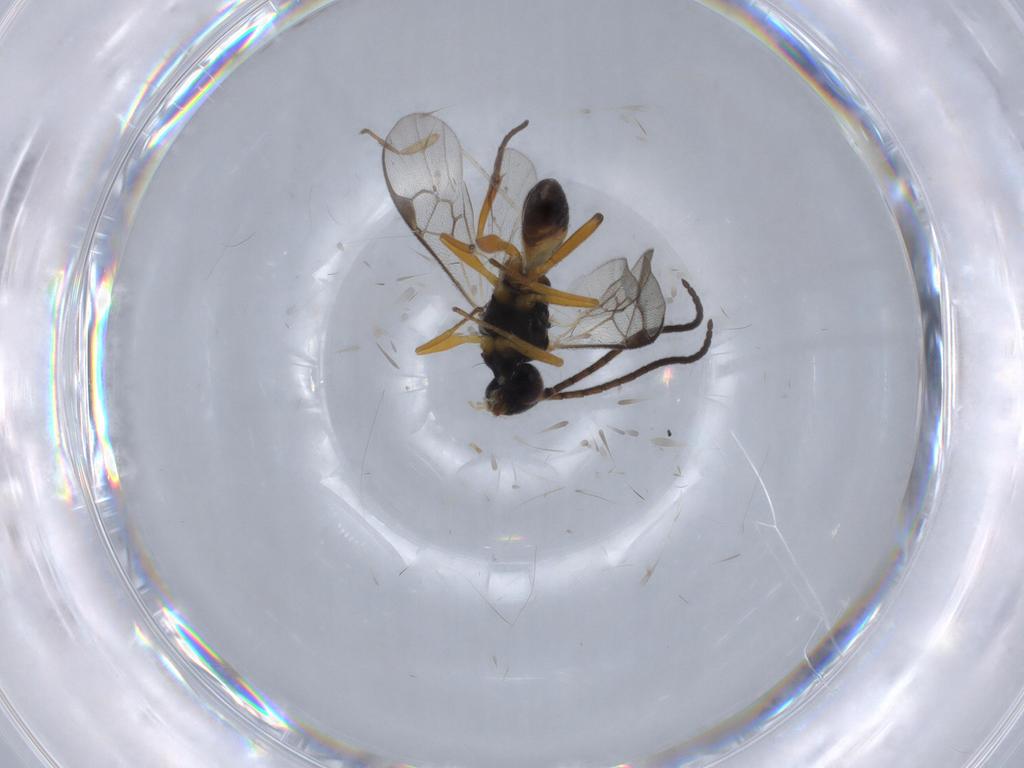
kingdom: Animalia
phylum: Arthropoda
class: Insecta
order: Hymenoptera
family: Braconidae
